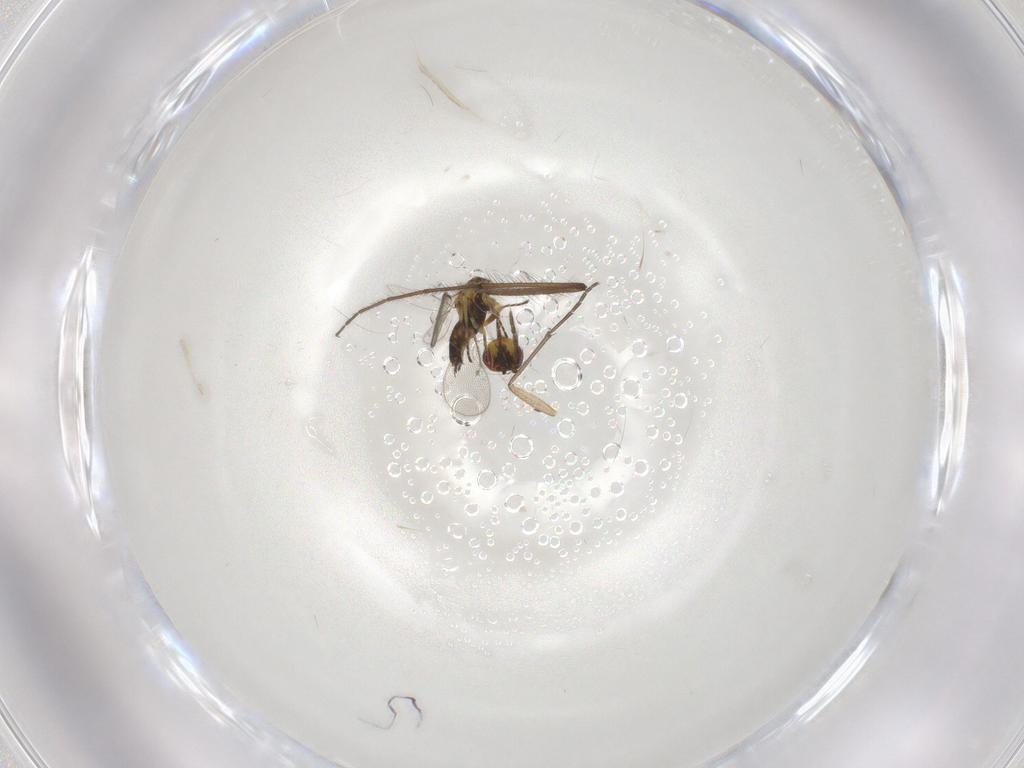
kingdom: Animalia
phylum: Arthropoda
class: Insecta
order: Hymenoptera
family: Eulophidae
